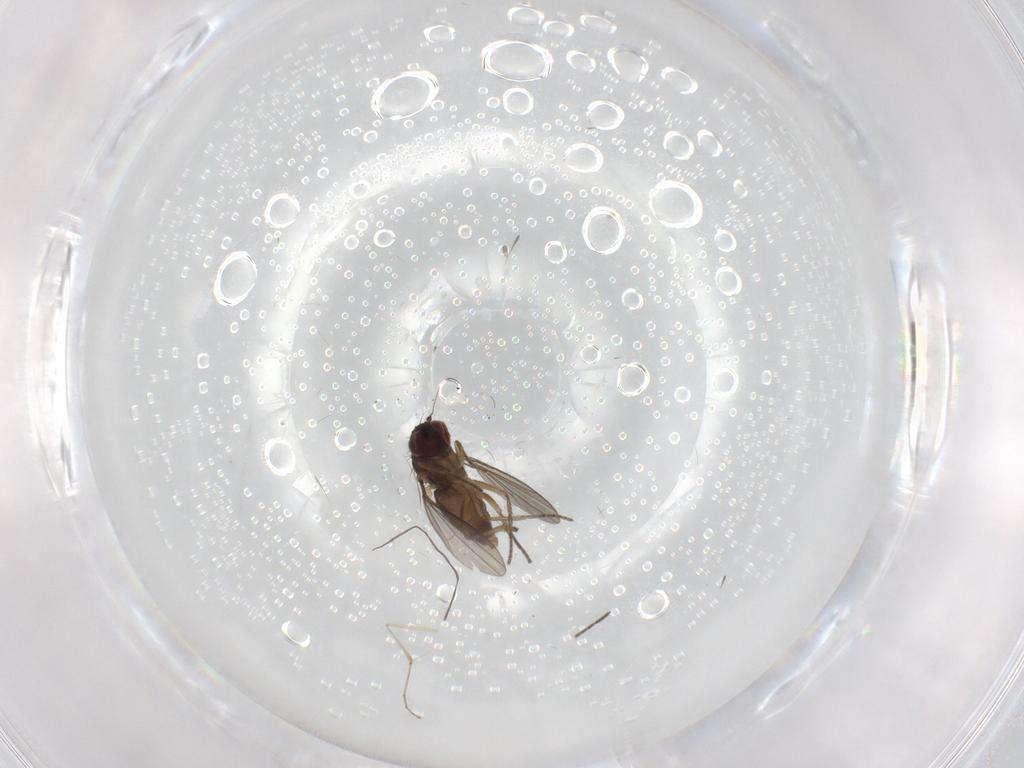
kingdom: Animalia
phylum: Arthropoda
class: Insecta
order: Diptera
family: Cecidomyiidae
